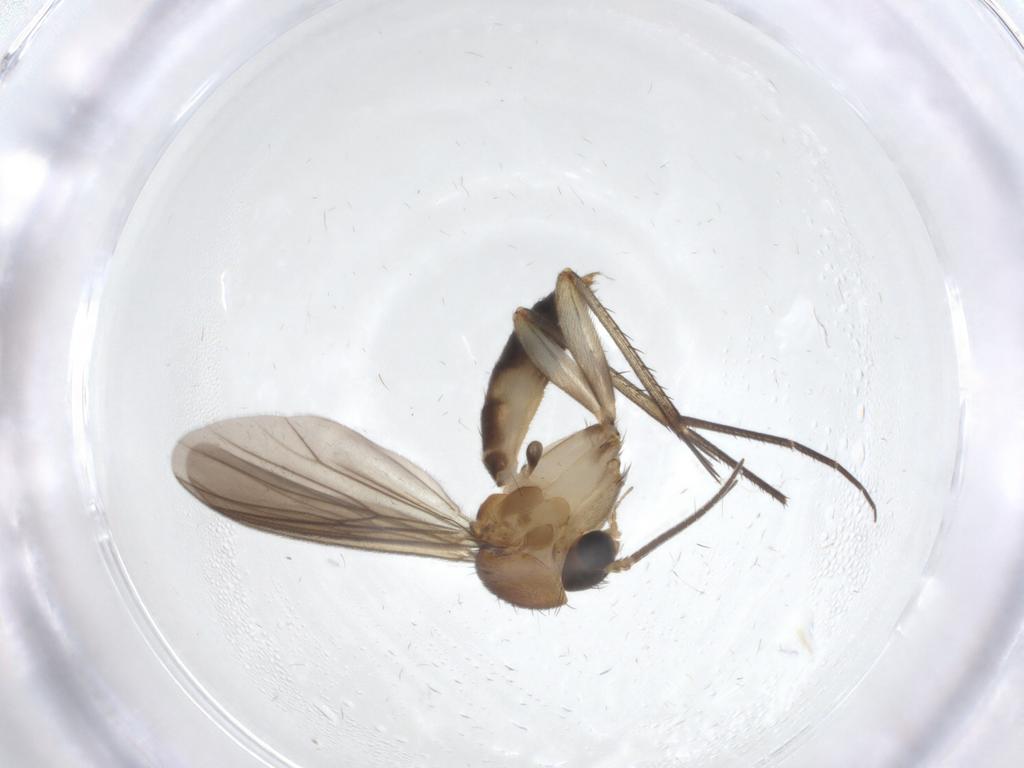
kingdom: Animalia
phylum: Arthropoda
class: Insecta
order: Diptera
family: Mycetophilidae
